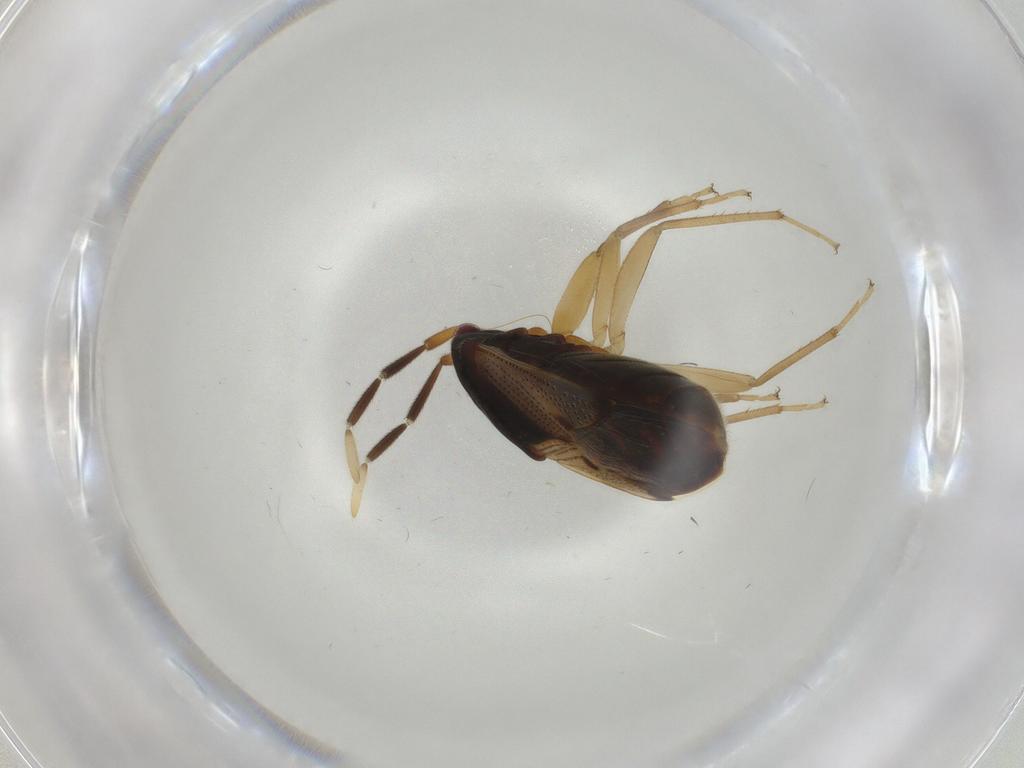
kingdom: Animalia
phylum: Arthropoda
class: Insecta
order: Hemiptera
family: Rhyparochromidae
